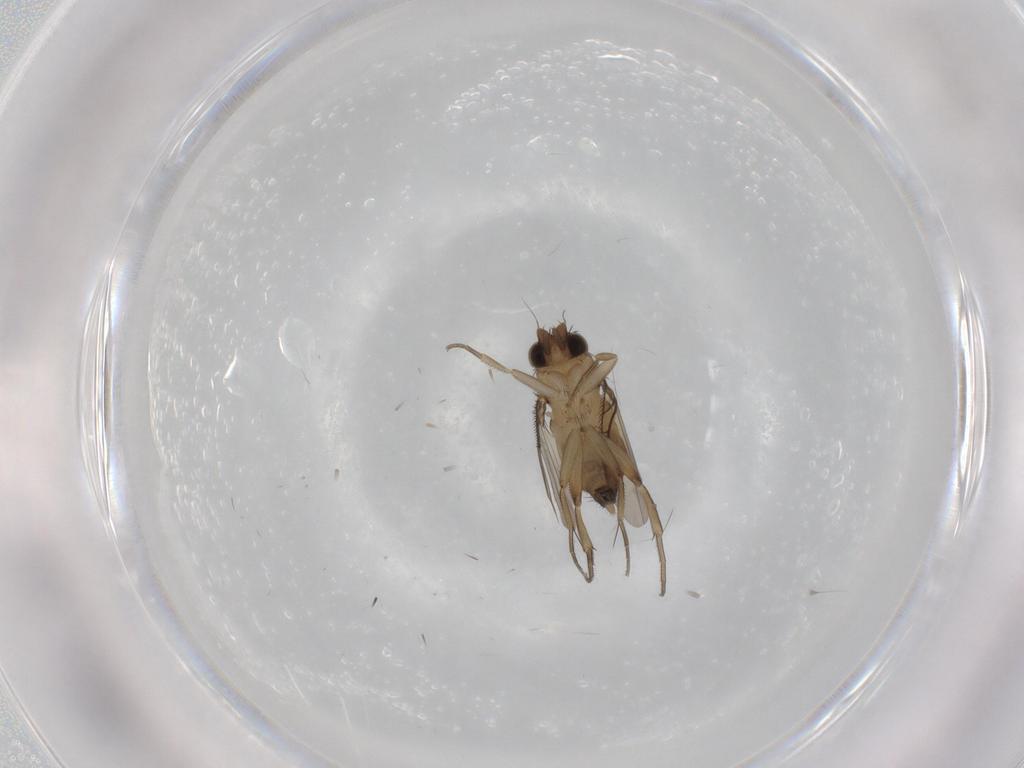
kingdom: Animalia
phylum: Arthropoda
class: Insecta
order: Diptera
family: Phoridae
